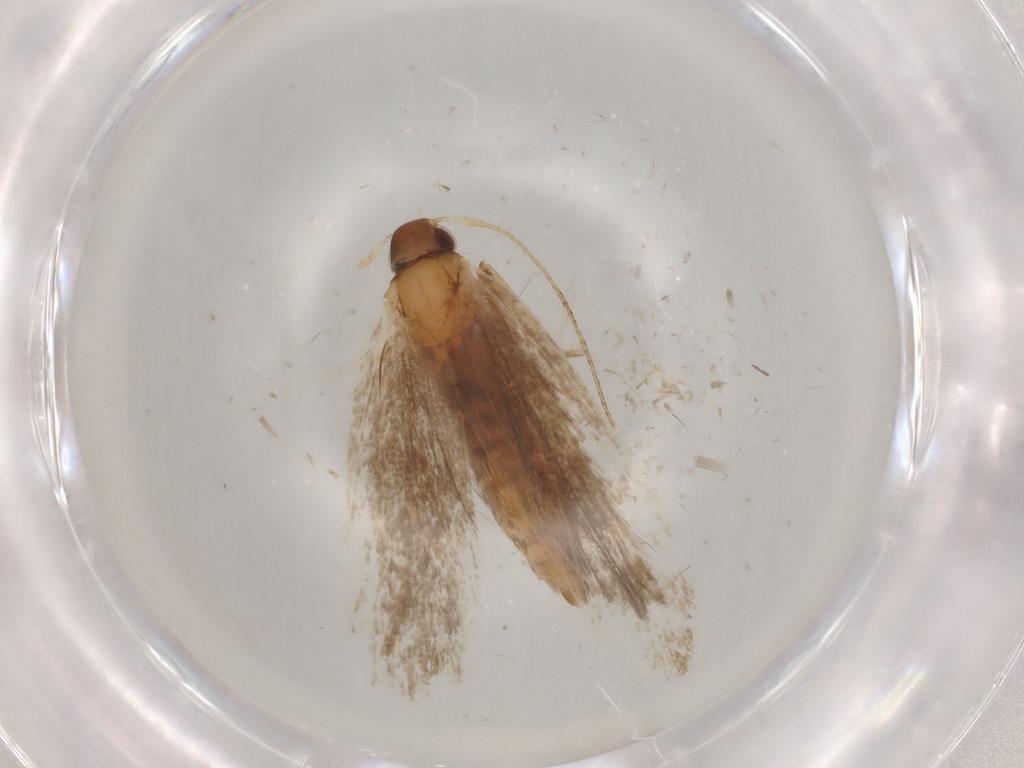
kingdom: Animalia
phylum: Arthropoda
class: Insecta
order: Lepidoptera
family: Gelechiidae
